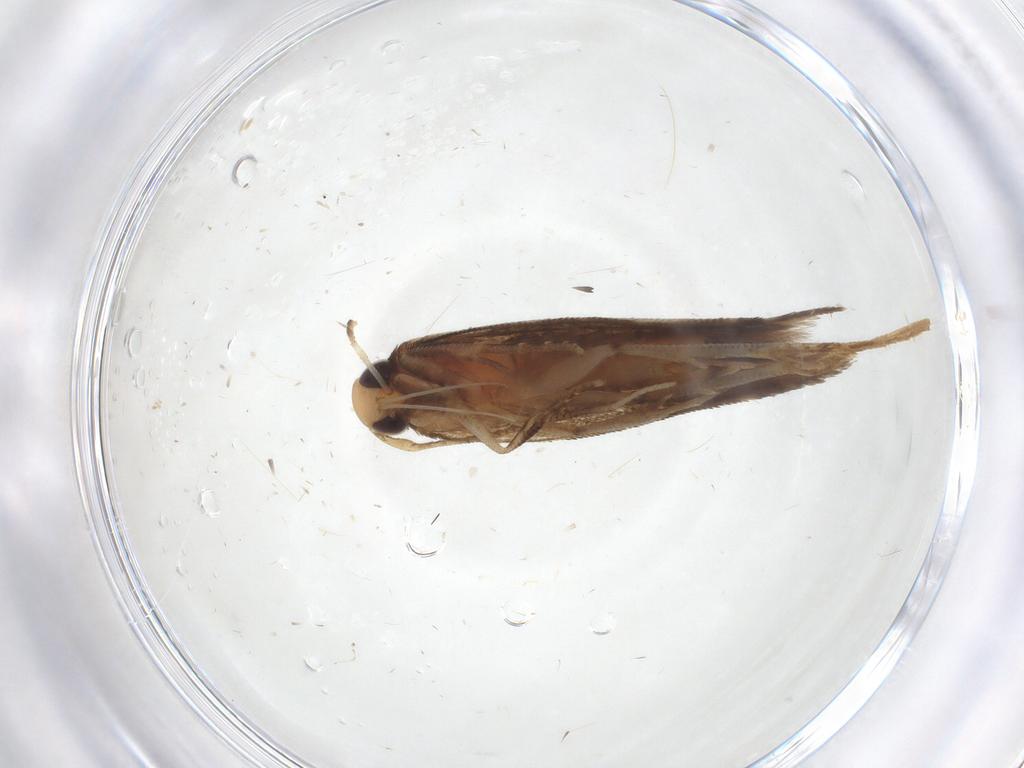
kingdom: Animalia
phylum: Arthropoda
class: Insecta
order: Lepidoptera
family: Cosmopterigidae
